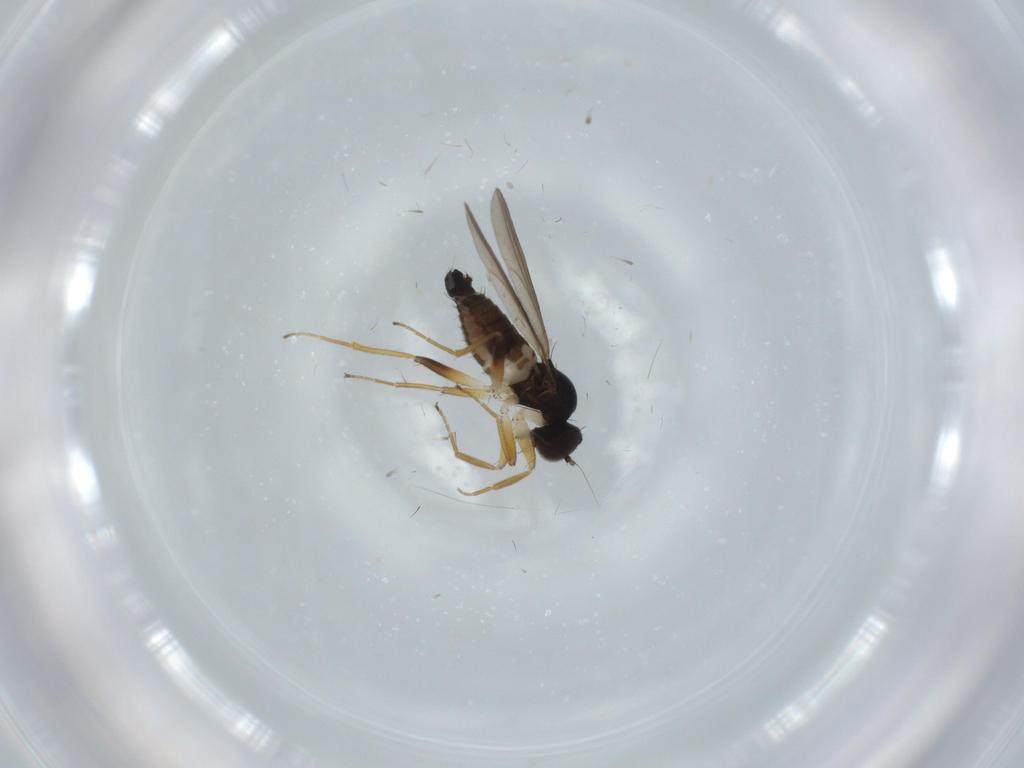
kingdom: Animalia
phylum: Arthropoda
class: Insecta
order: Diptera
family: Hybotidae
